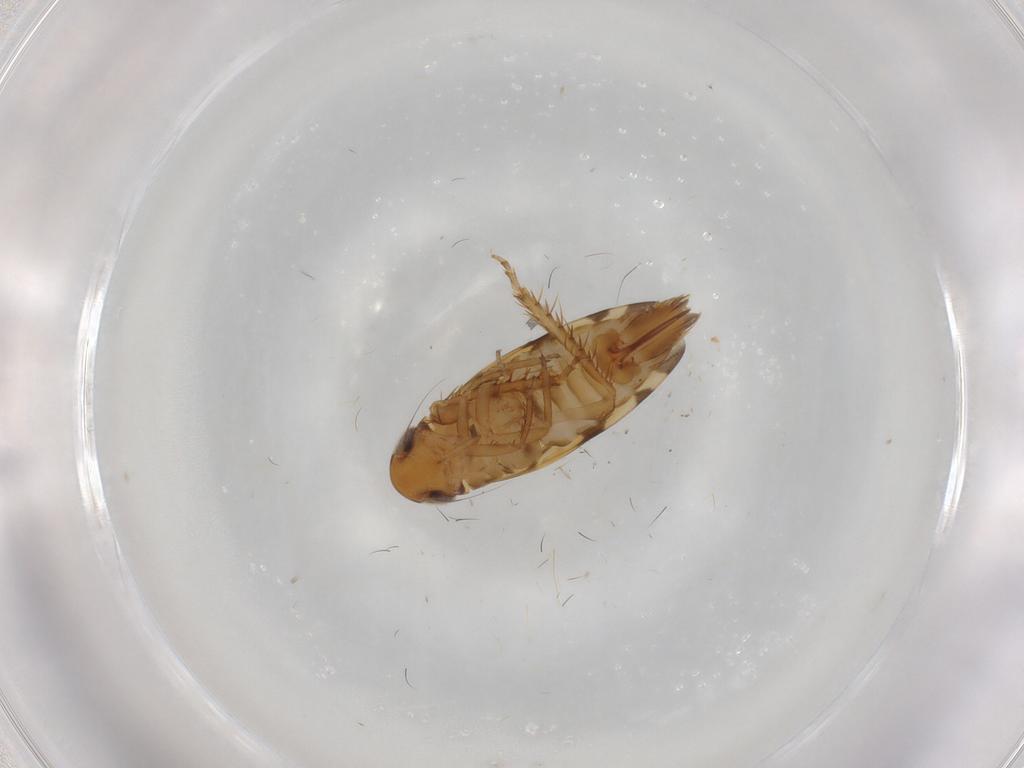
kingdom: Animalia
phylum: Arthropoda
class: Insecta
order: Hemiptera
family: Cicadellidae
